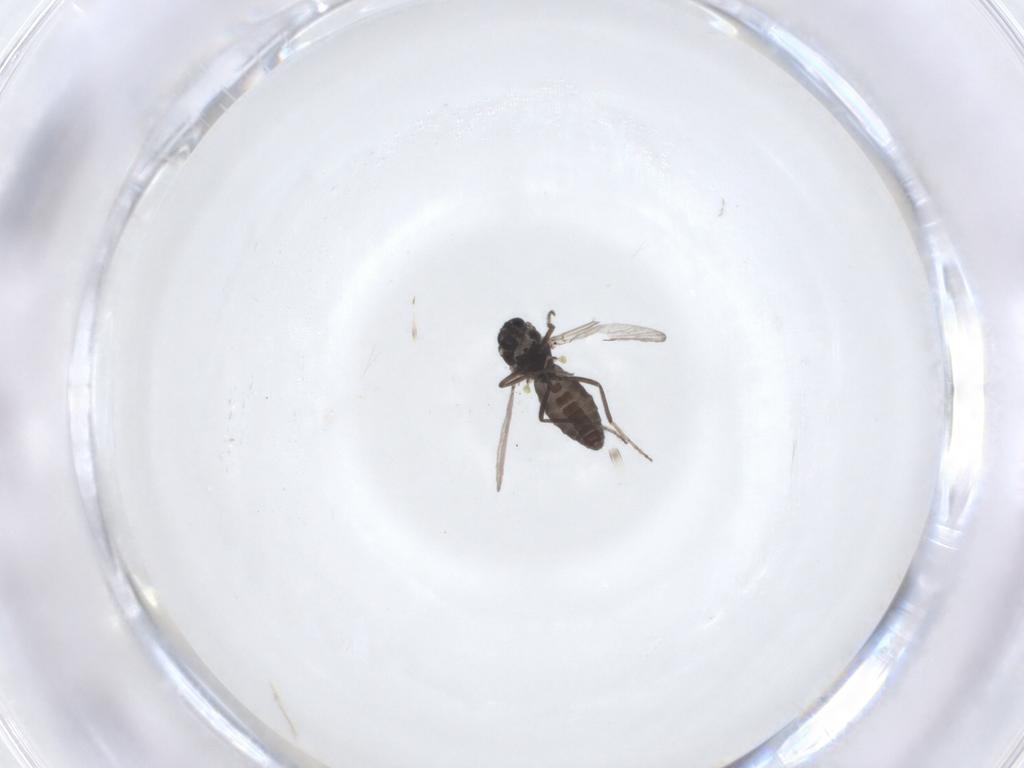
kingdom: Animalia
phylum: Arthropoda
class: Insecta
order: Diptera
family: Ceratopogonidae
